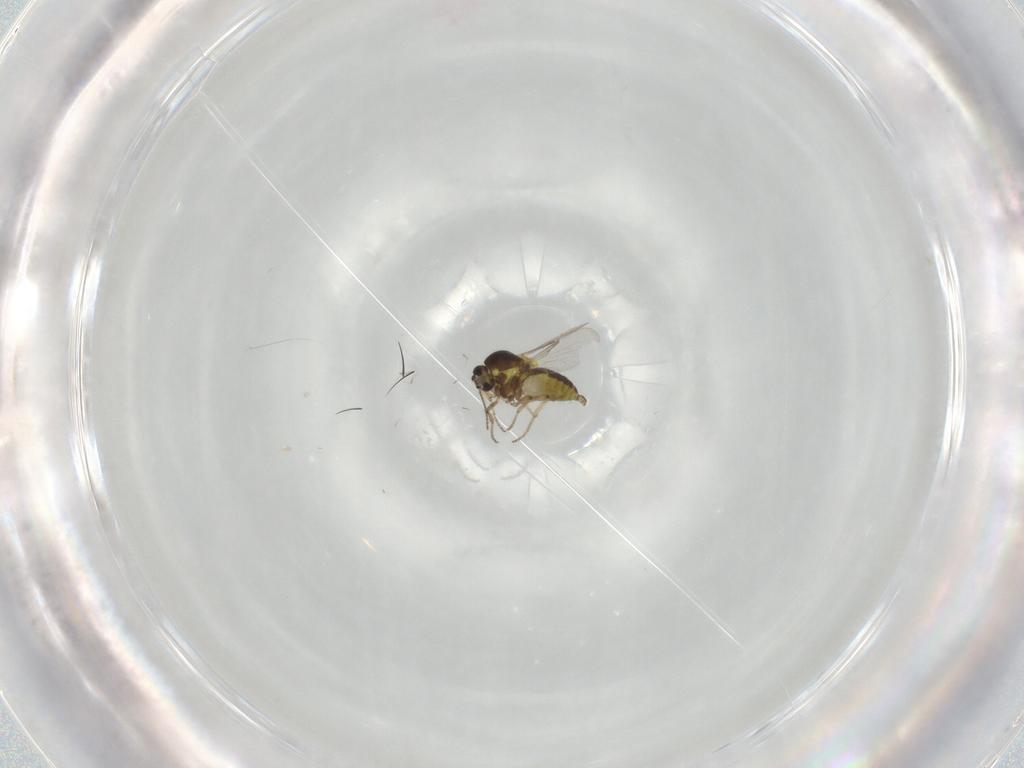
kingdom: Animalia
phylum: Arthropoda
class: Insecta
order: Diptera
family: Ceratopogonidae
